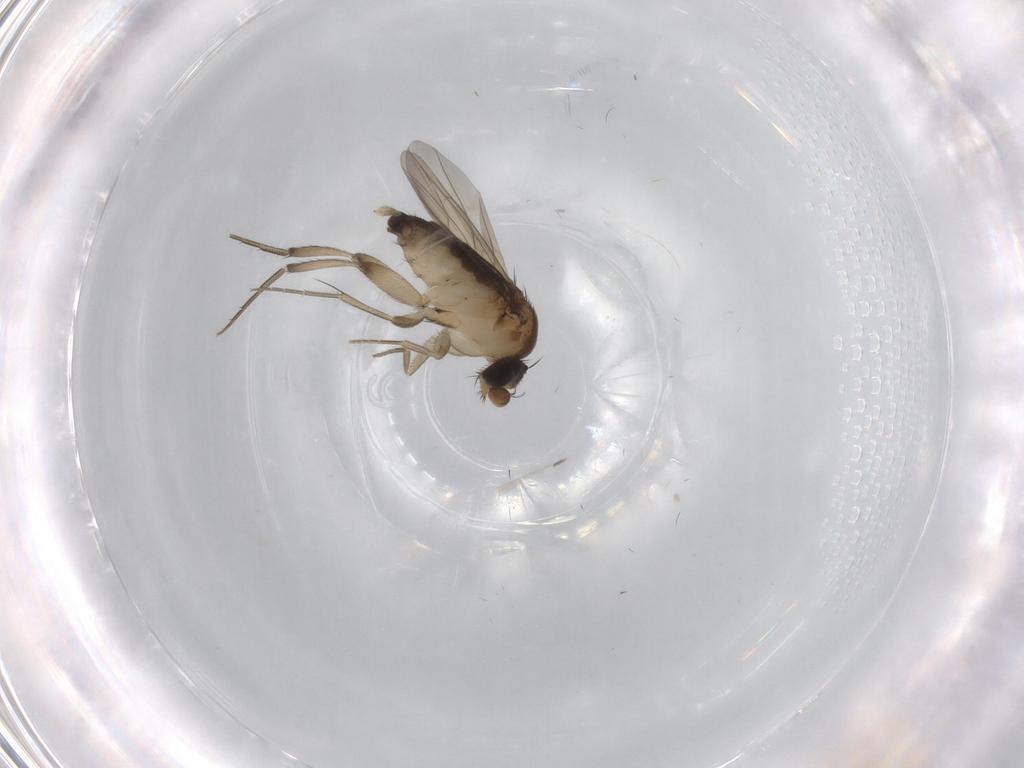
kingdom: Animalia
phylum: Arthropoda
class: Insecta
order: Diptera
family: Phoridae
